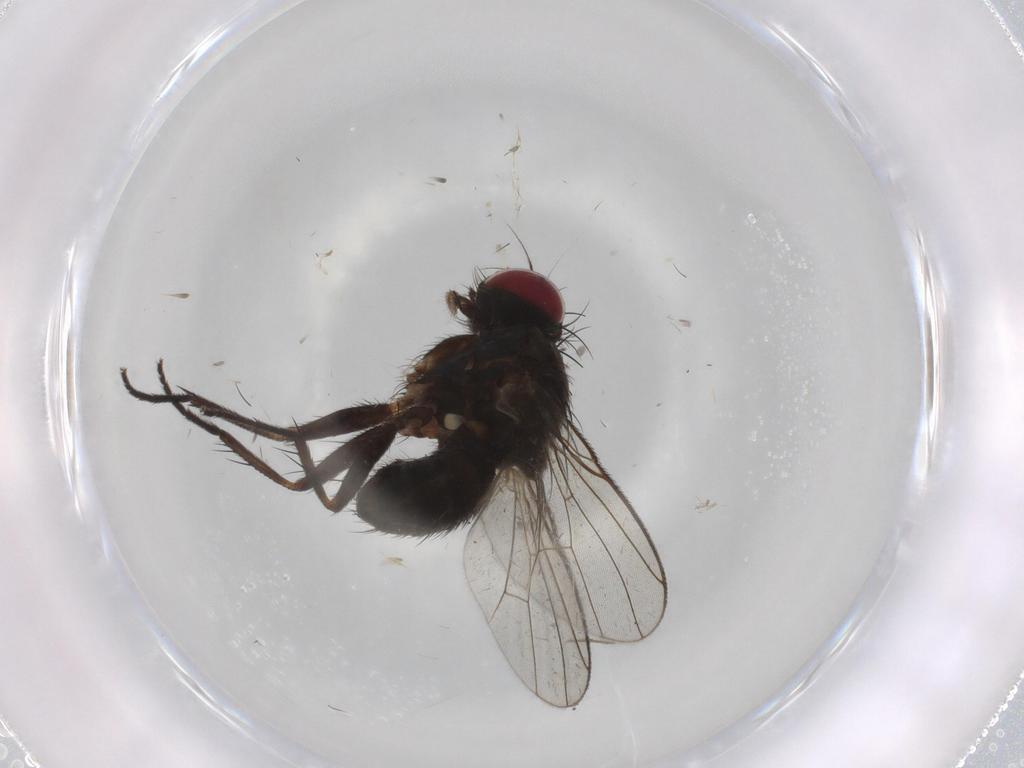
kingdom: Animalia
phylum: Arthropoda
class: Insecta
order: Diptera
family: Muscidae
